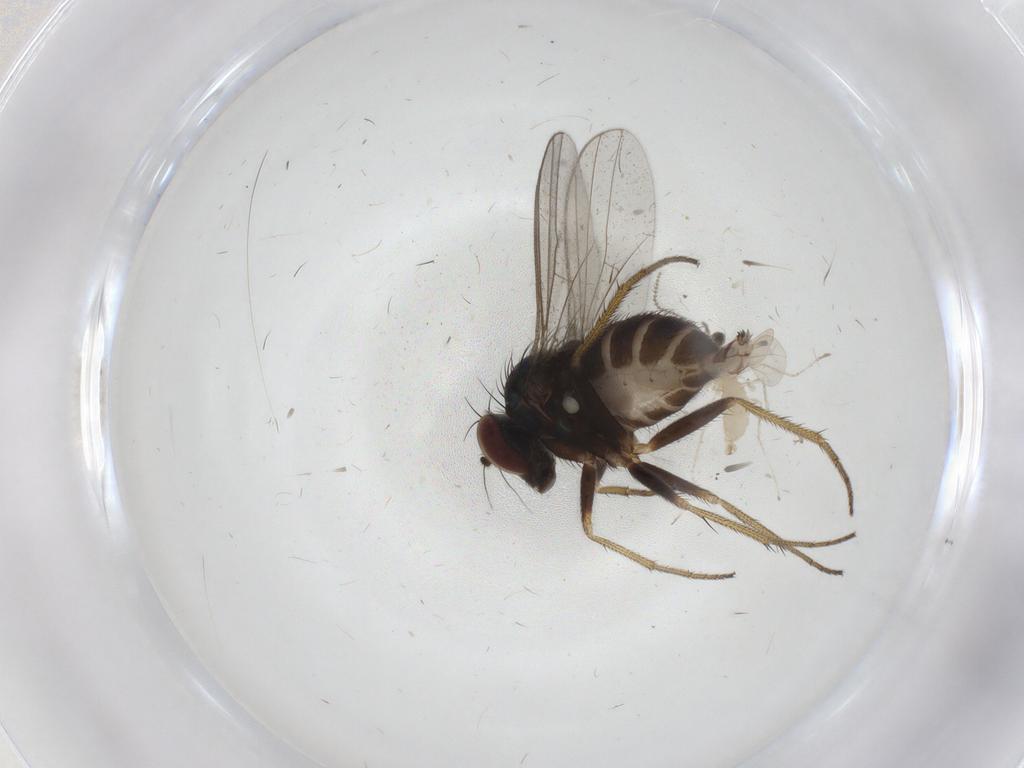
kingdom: Animalia
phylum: Arthropoda
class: Insecta
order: Diptera
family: Dolichopodidae
